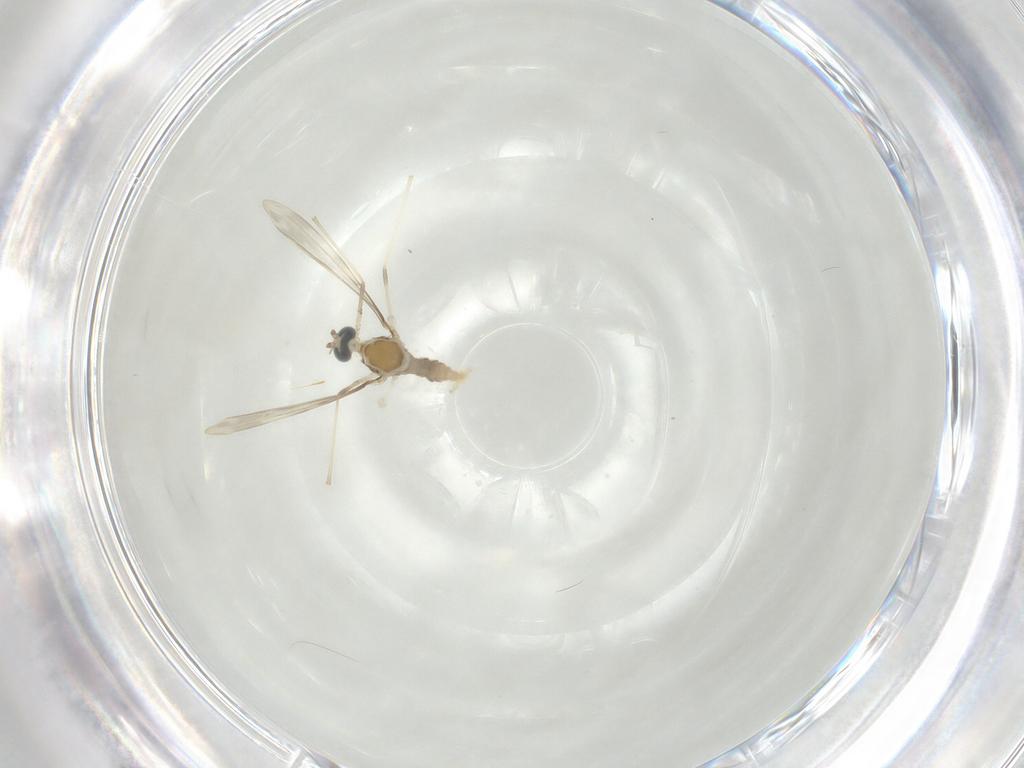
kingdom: Animalia
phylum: Arthropoda
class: Insecta
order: Diptera
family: Cecidomyiidae
